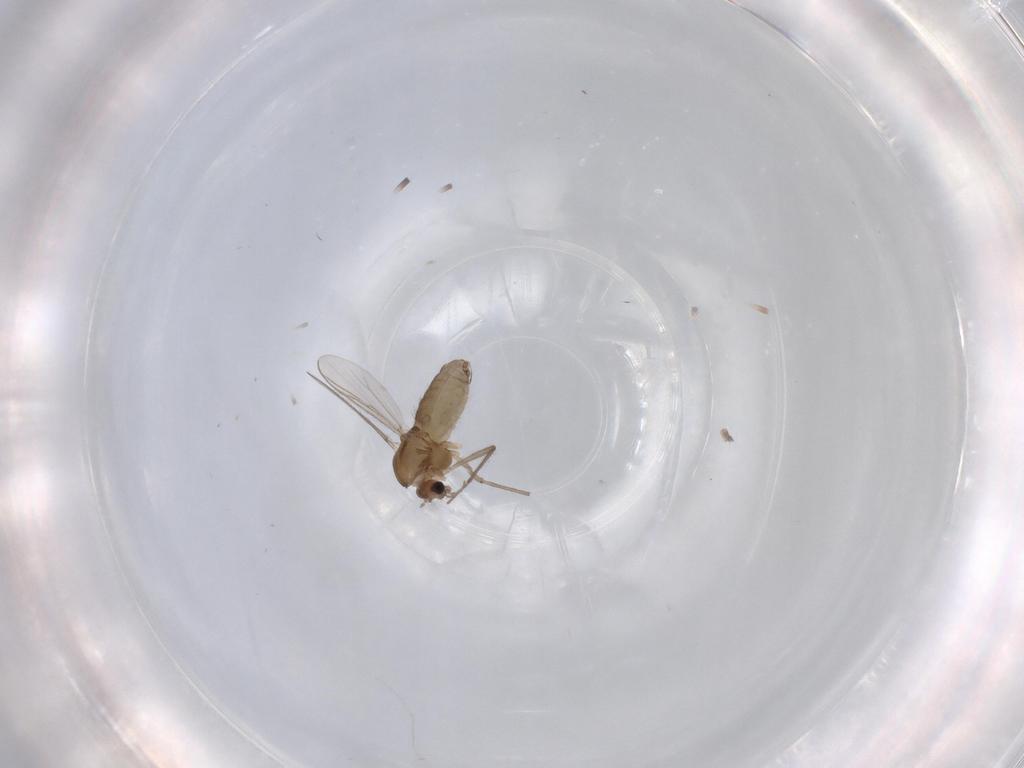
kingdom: Animalia
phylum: Arthropoda
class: Insecta
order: Diptera
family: Chironomidae
